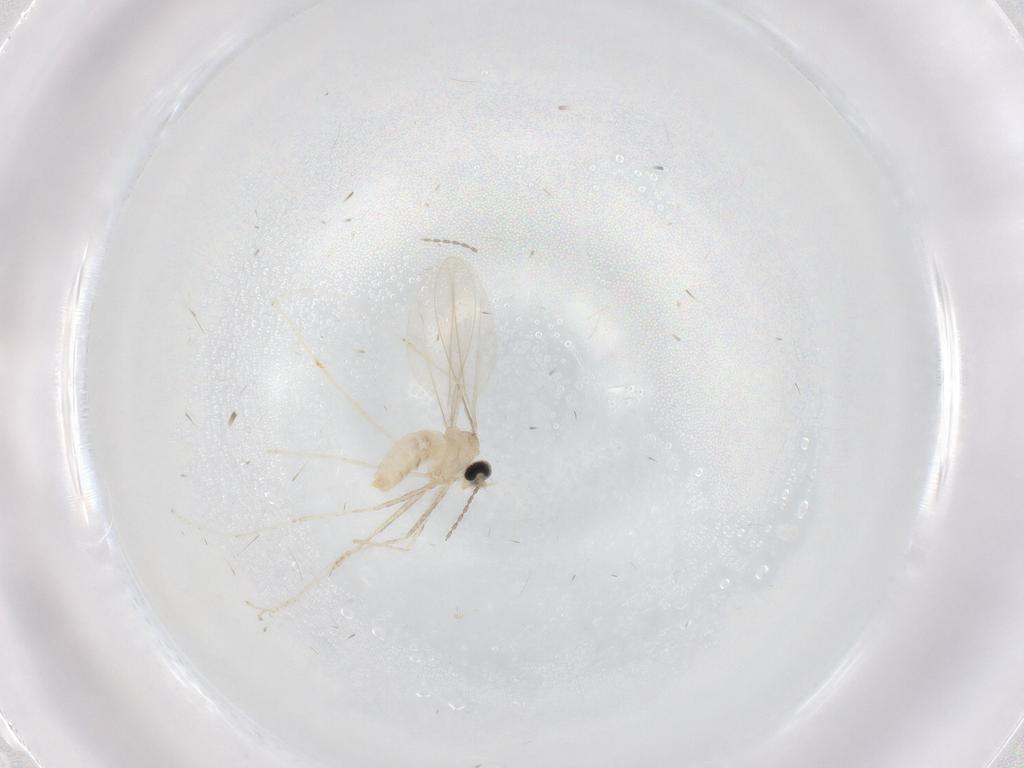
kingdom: Animalia
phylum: Arthropoda
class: Insecta
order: Diptera
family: Cecidomyiidae
